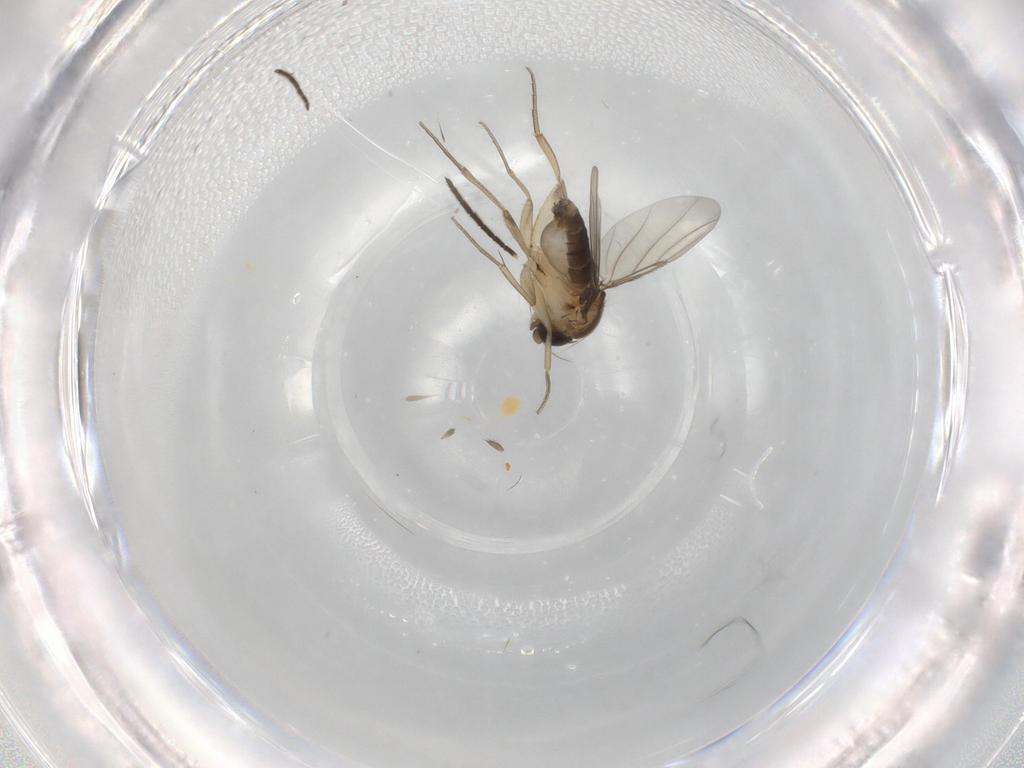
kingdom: Animalia
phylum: Arthropoda
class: Insecta
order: Diptera
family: Sciaridae
